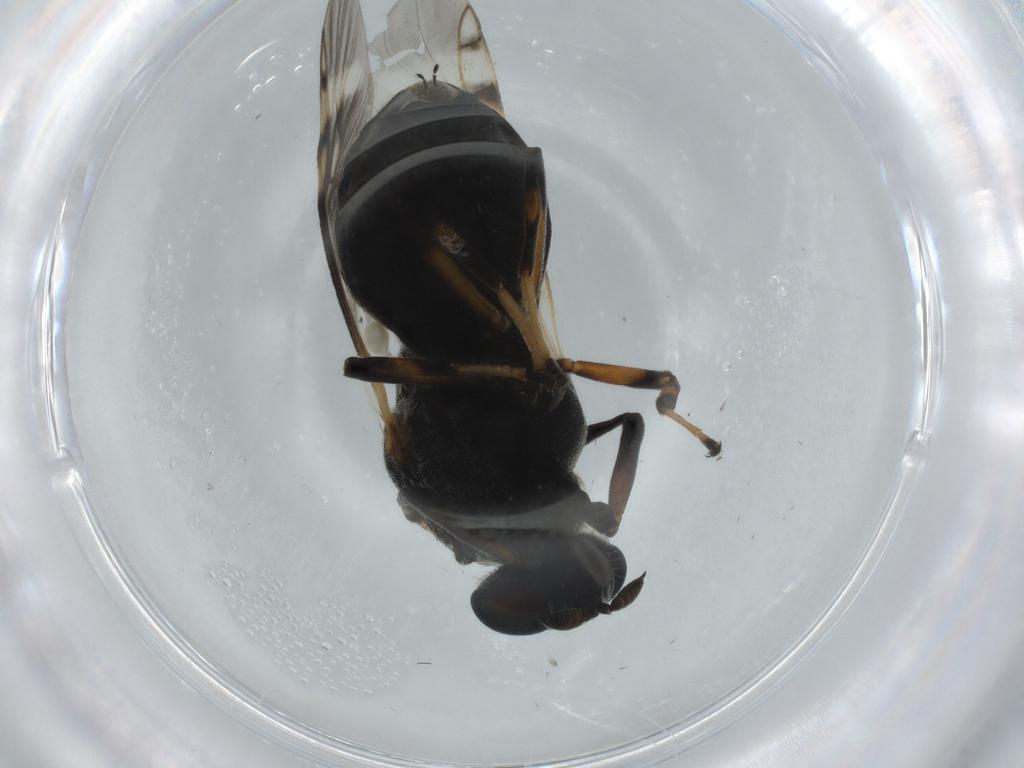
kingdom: Animalia
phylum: Arthropoda
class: Insecta
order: Diptera
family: Stratiomyidae
